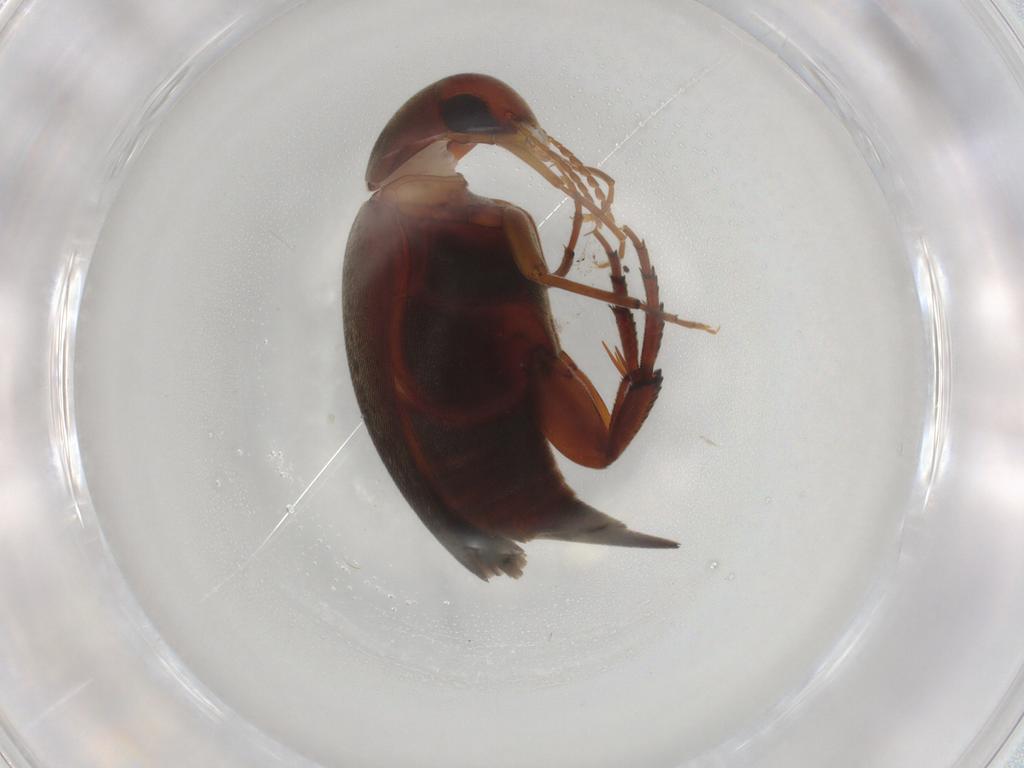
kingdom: Animalia
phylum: Arthropoda
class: Insecta
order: Coleoptera
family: Mordellidae
